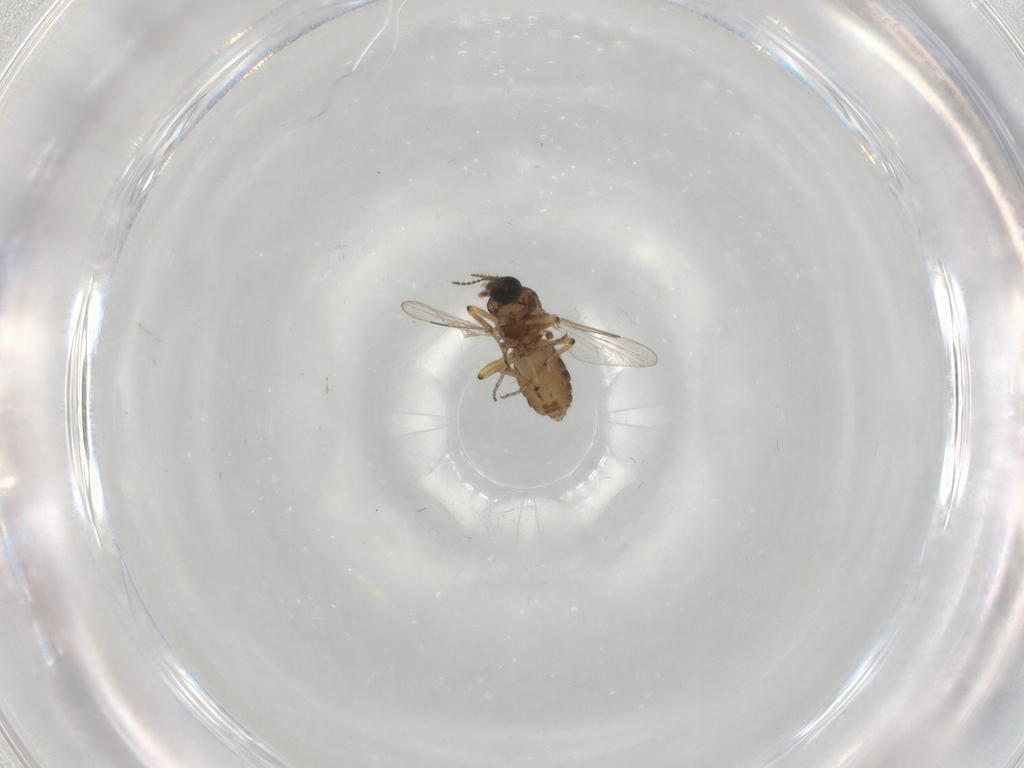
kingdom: Animalia
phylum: Arthropoda
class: Insecta
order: Diptera
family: Ceratopogonidae
